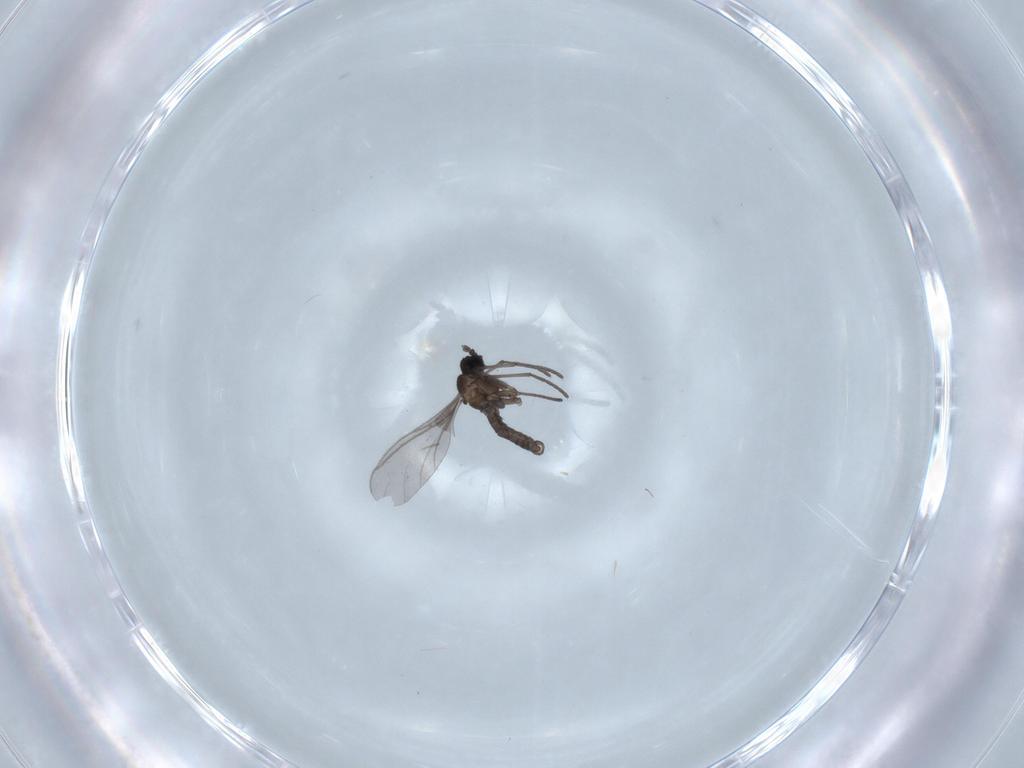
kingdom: Animalia
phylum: Arthropoda
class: Insecta
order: Diptera
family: Sciaridae
